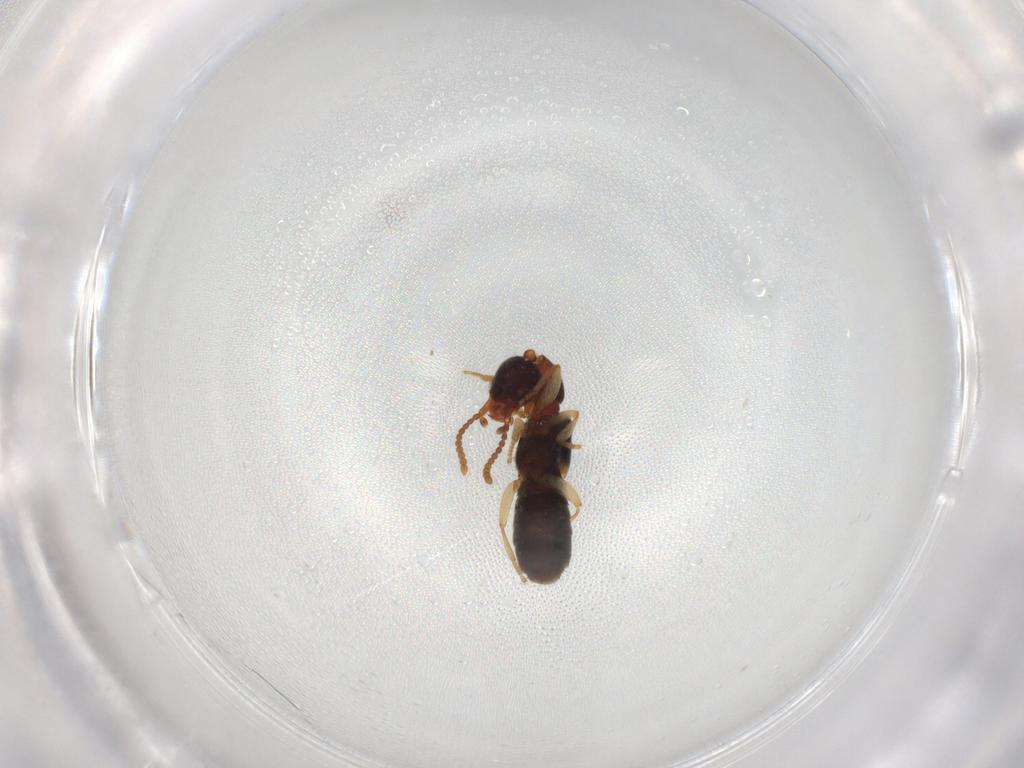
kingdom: Animalia
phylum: Arthropoda
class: Insecta
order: Coleoptera
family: Staphylinidae
